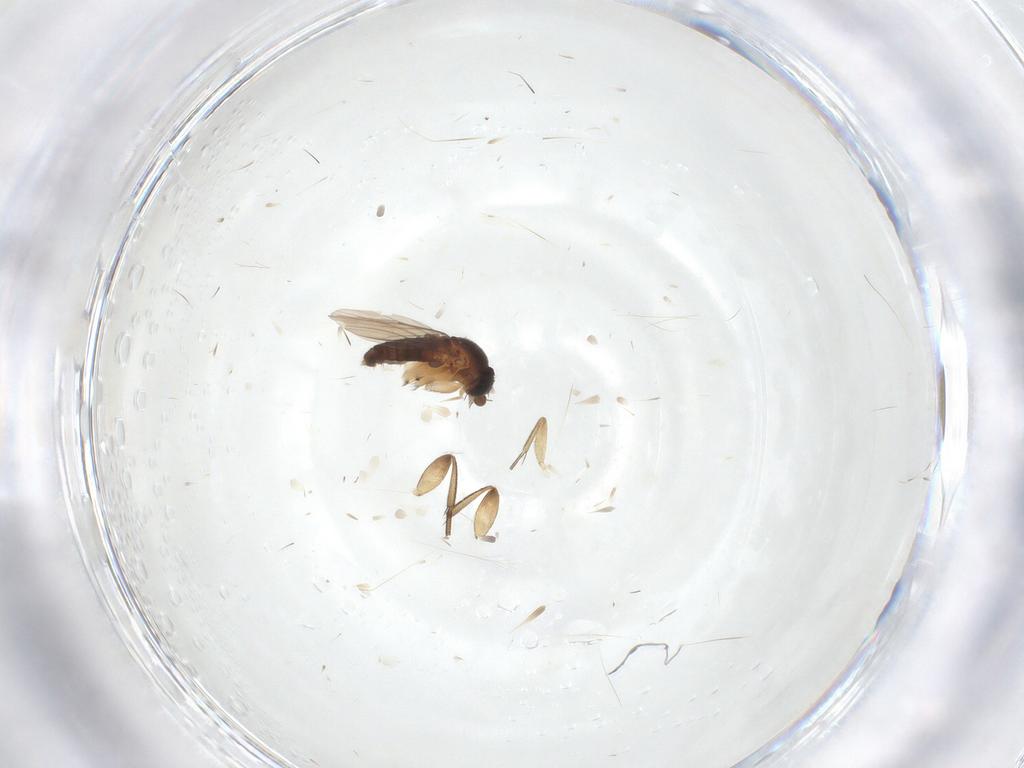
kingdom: Animalia
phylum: Arthropoda
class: Insecta
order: Diptera
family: Phoridae
